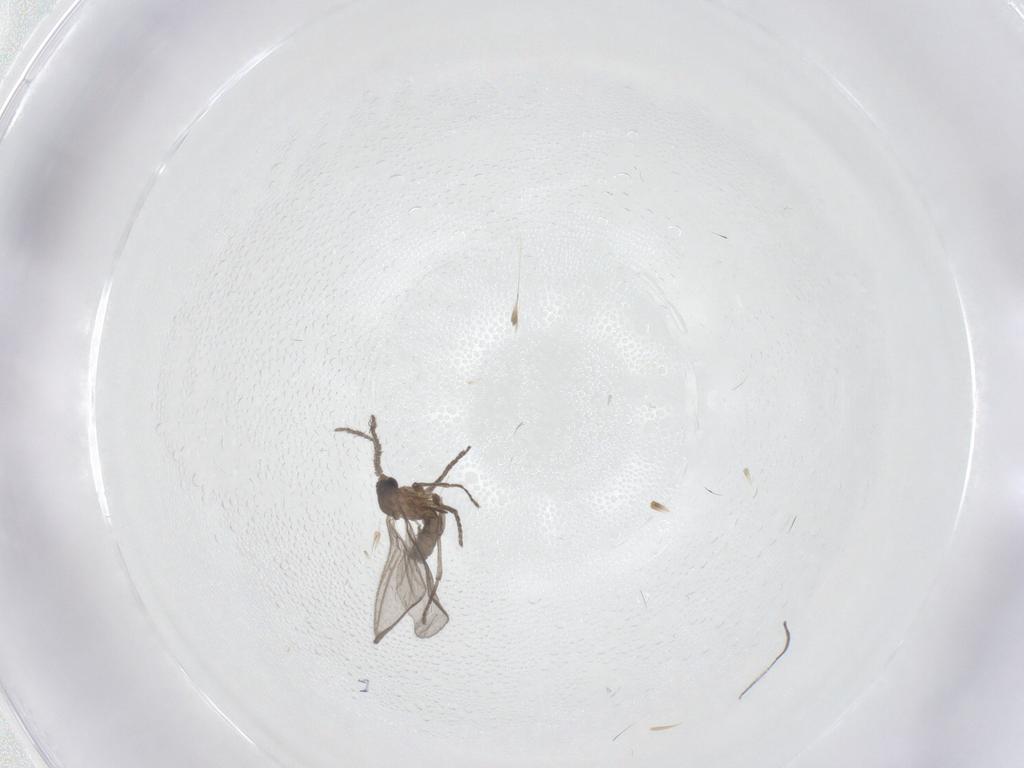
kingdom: Animalia
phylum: Arthropoda
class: Insecta
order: Diptera
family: Sciaridae
